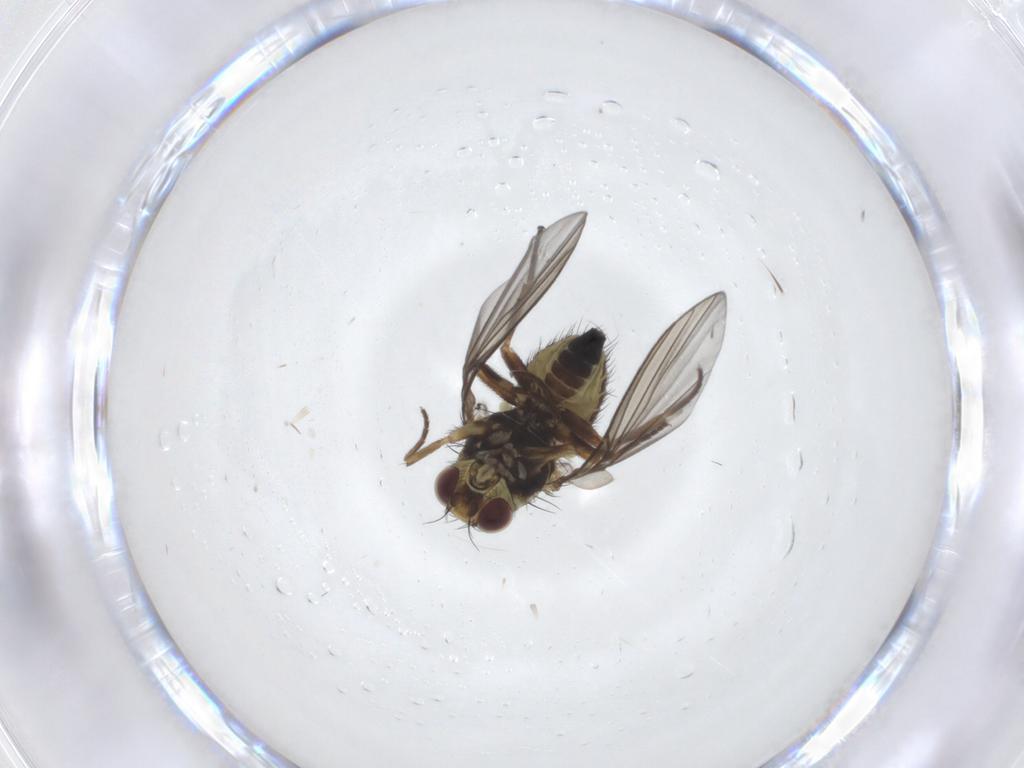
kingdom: Animalia
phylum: Arthropoda
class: Insecta
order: Diptera
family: Agromyzidae
